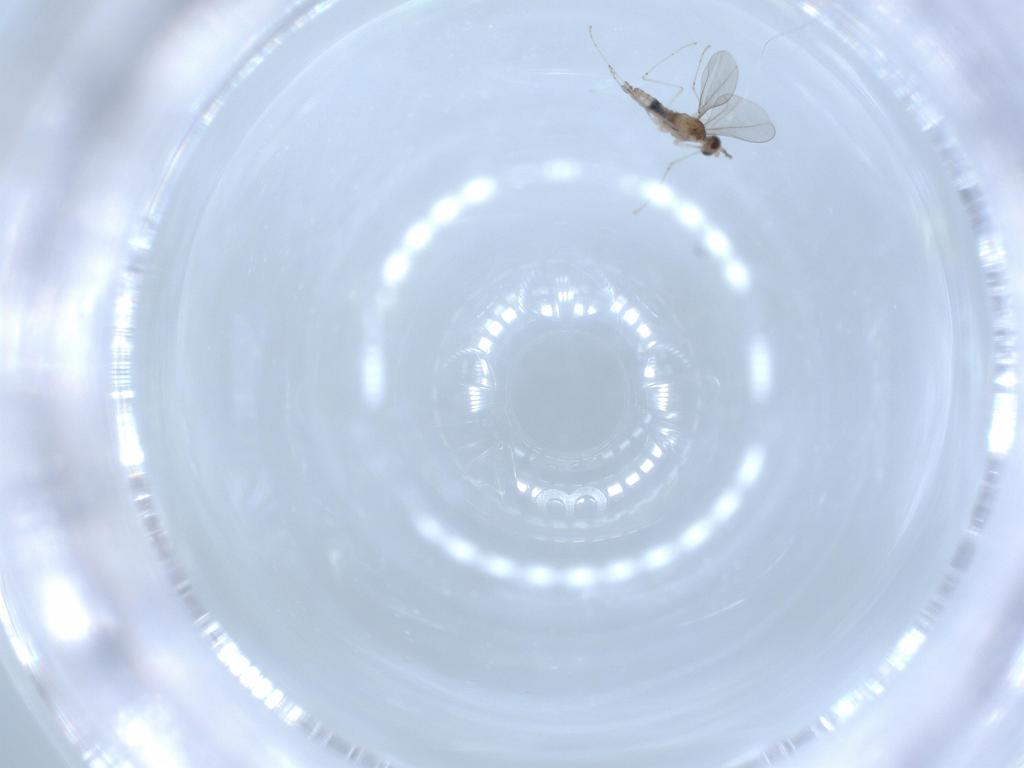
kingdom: Animalia
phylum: Arthropoda
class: Insecta
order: Diptera
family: Cecidomyiidae
